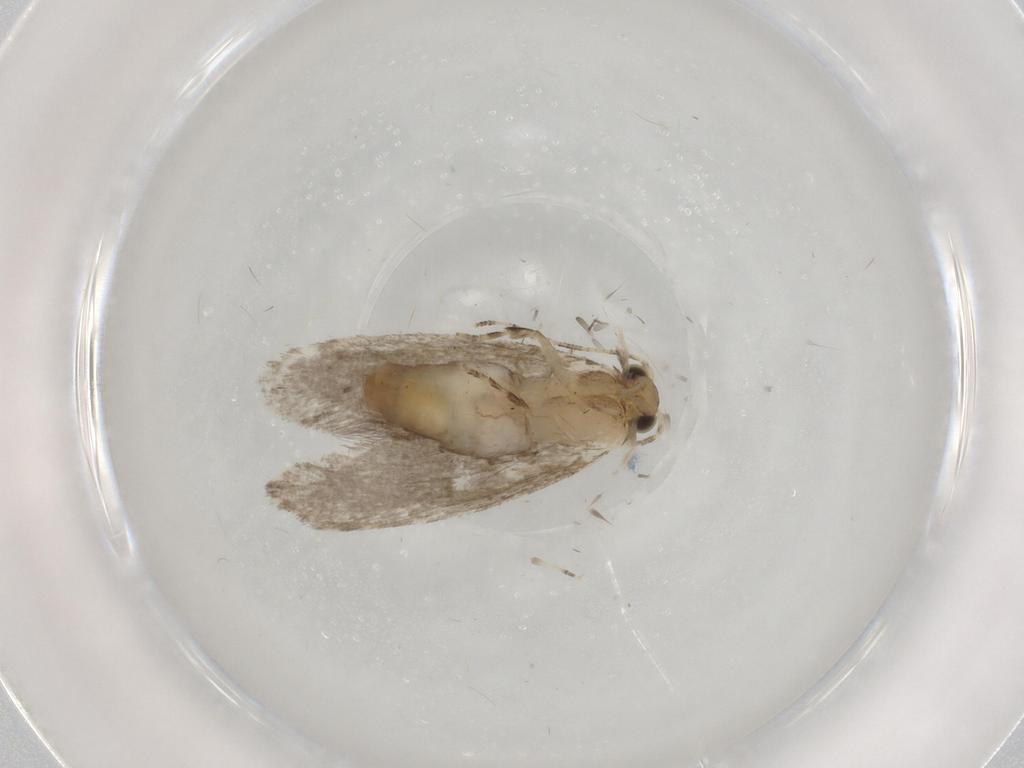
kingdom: Animalia
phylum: Arthropoda
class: Insecta
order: Lepidoptera
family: Tineidae
